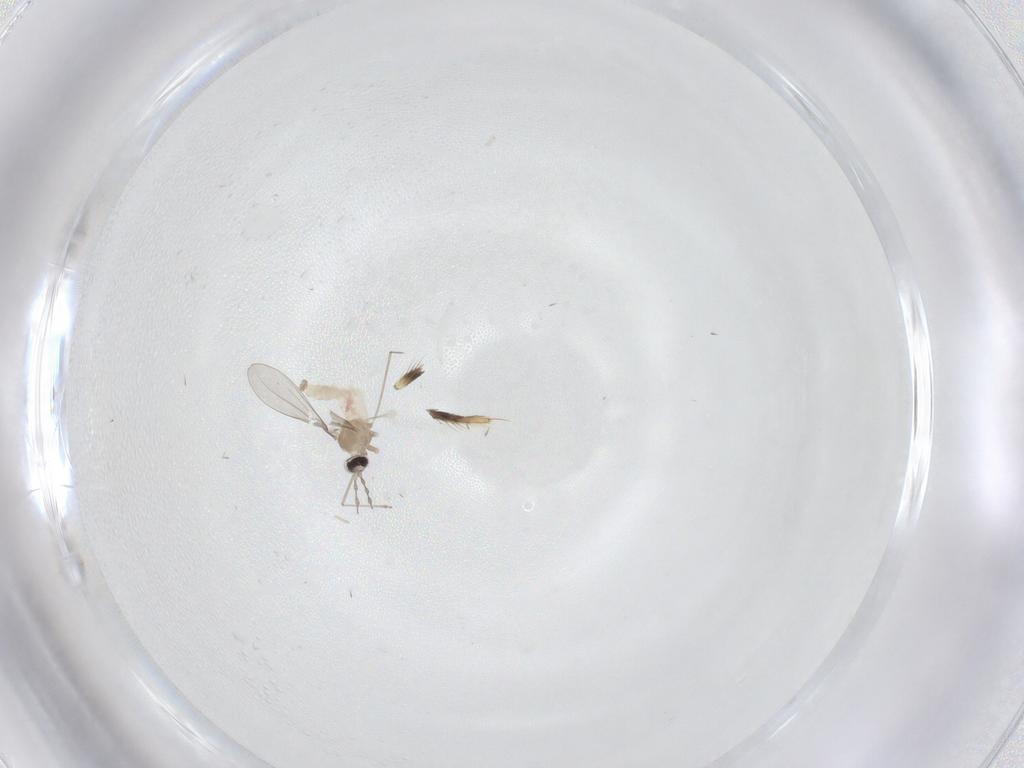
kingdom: Animalia
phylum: Arthropoda
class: Insecta
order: Diptera
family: Cecidomyiidae
